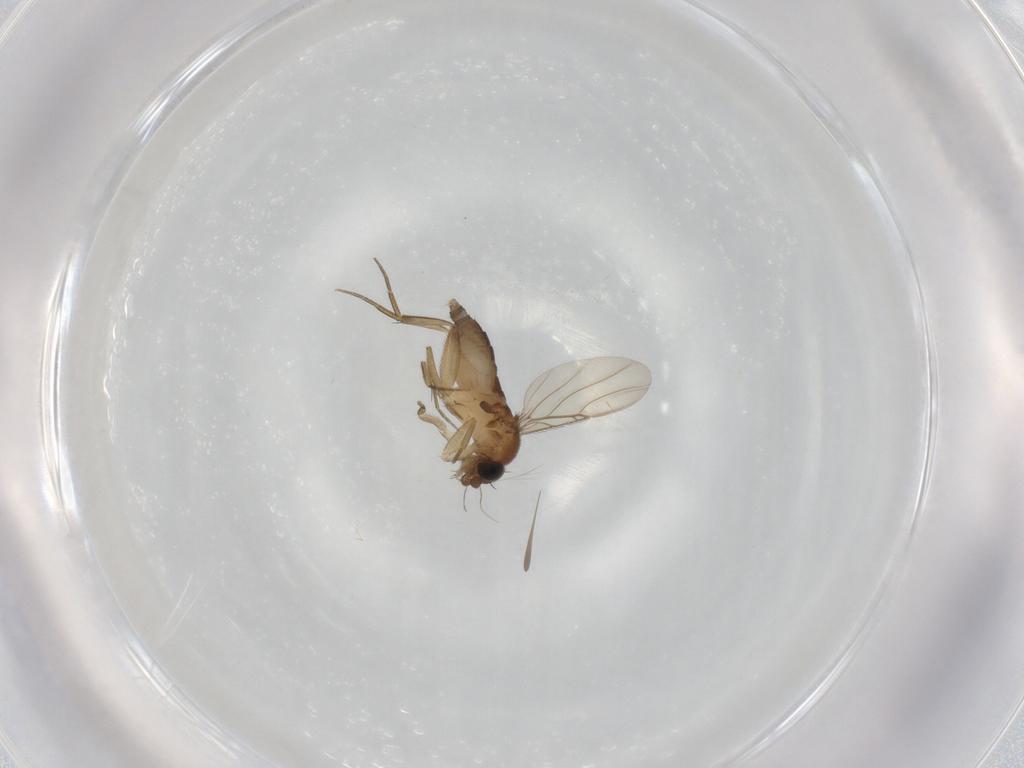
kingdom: Animalia
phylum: Arthropoda
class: Insecta
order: Diptera
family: Phoridae
